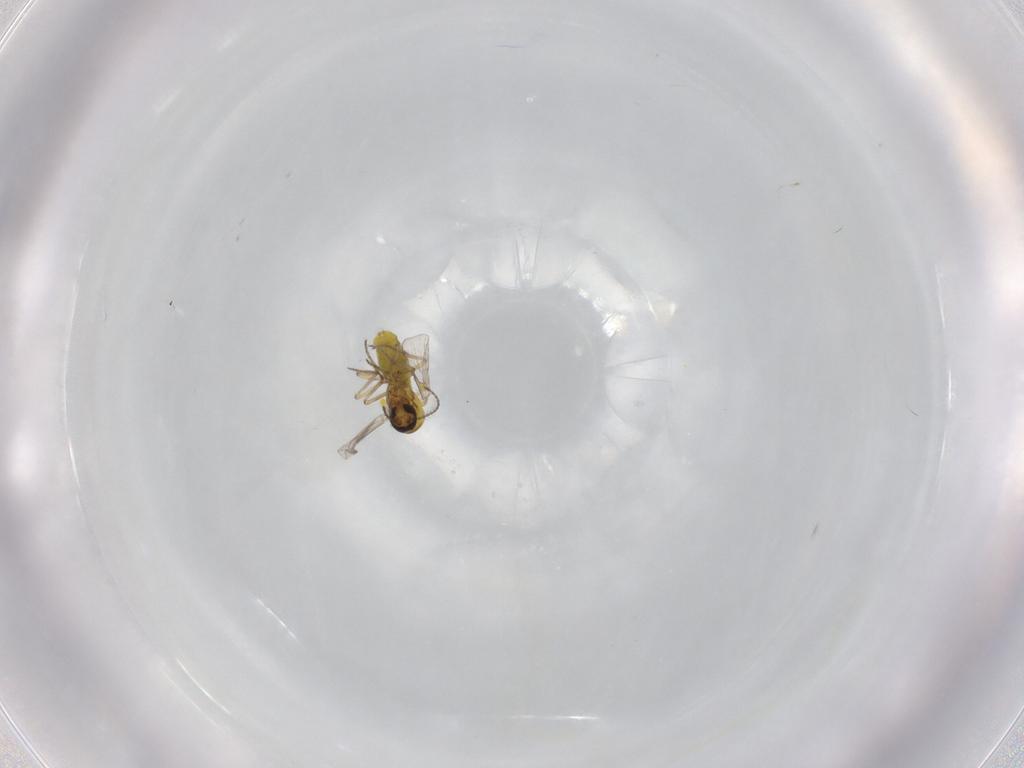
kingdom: Animalia
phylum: Arthropoda
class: Insecta
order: Diptera
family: Ceratopogonidae
